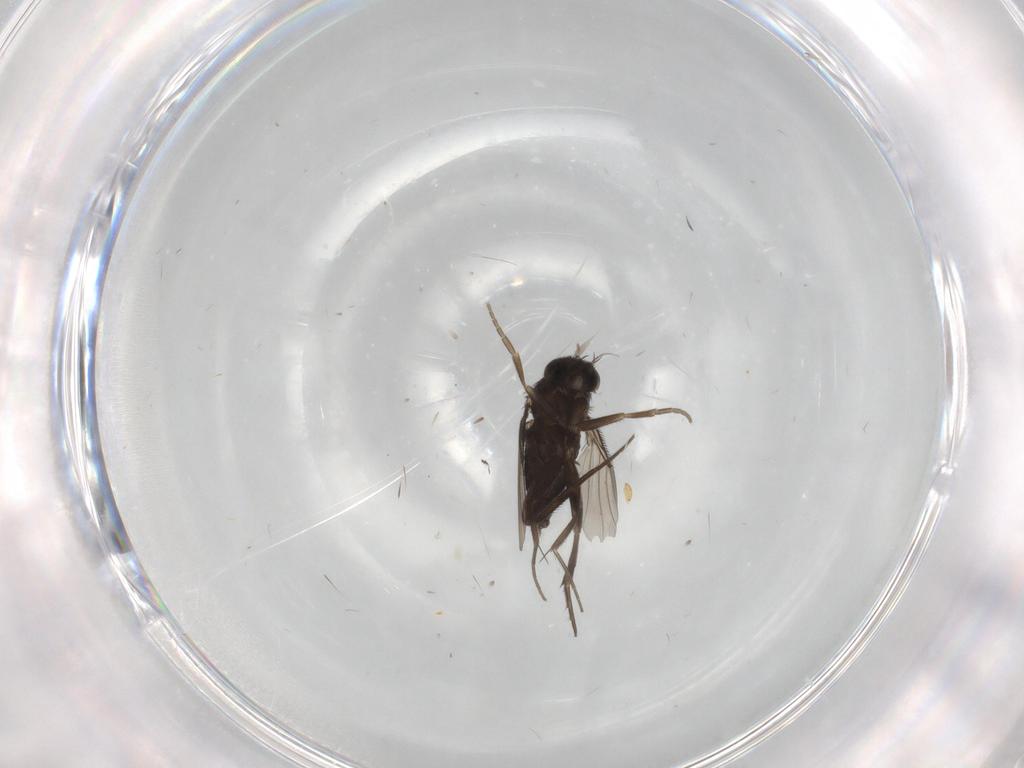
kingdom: Animalia
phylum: Arthropoda
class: Insecta
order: Diptera
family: Phoridae
